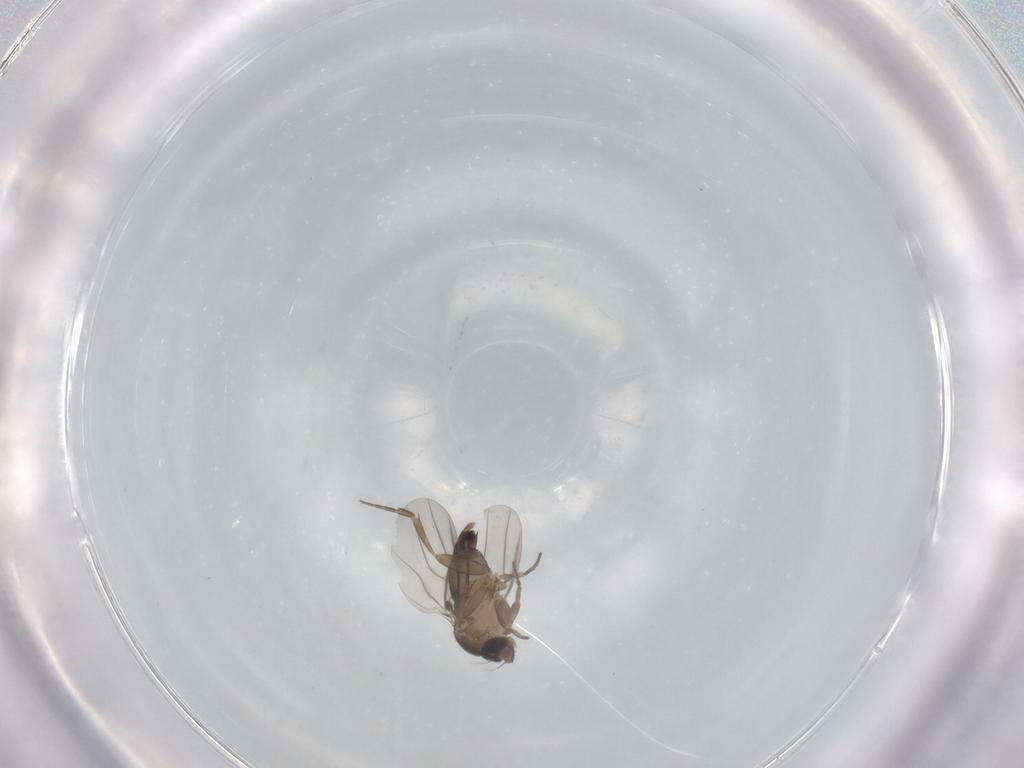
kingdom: Animalia
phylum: Arthropoda
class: Insecta
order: Diptera
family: Phoridae
